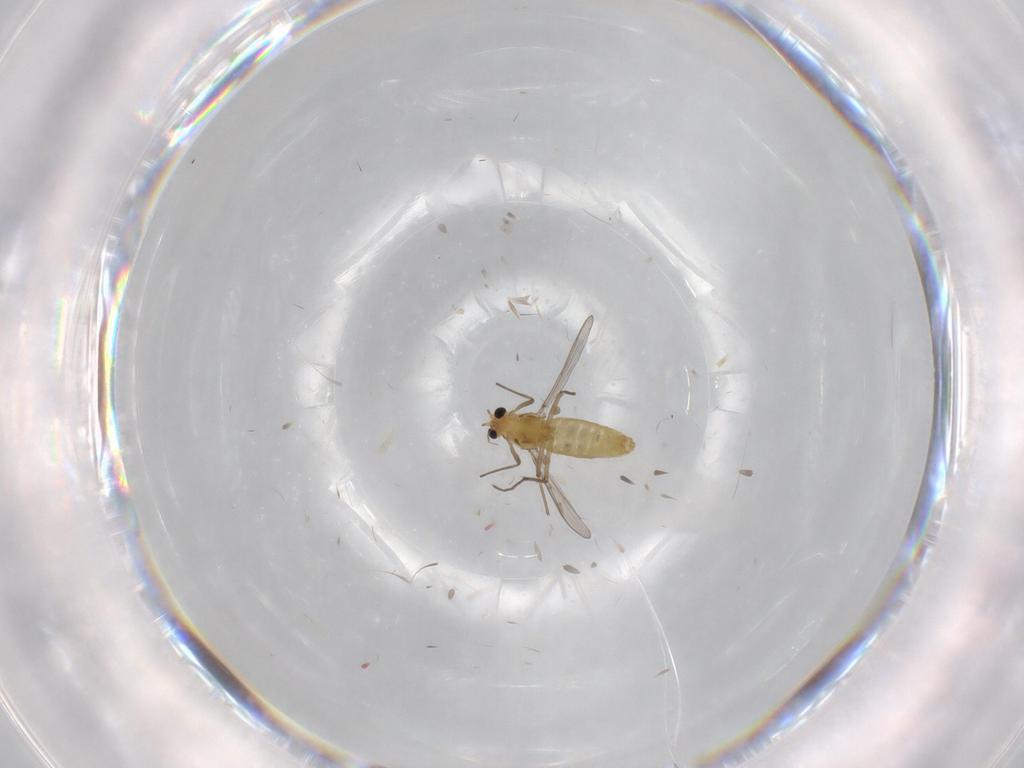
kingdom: Animalia
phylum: Arthropoda
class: Insecta
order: Diptera
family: Chironomidae
